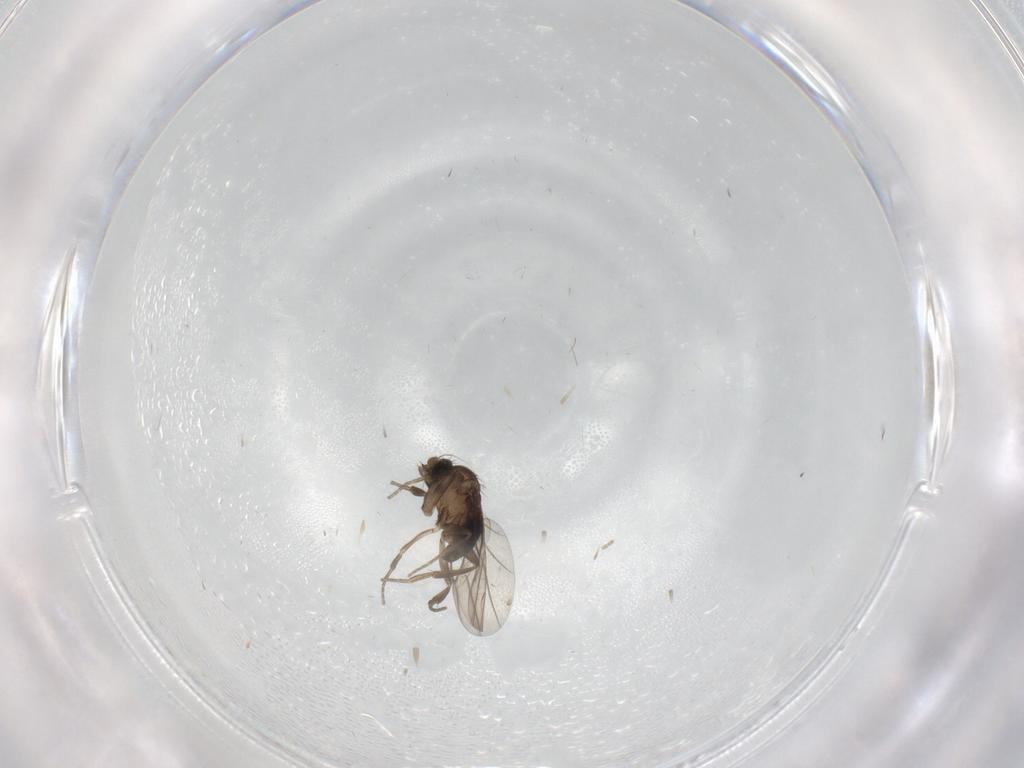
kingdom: Animalia
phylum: Arthropoda
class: Insecta
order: Diptera
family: Phoridae
